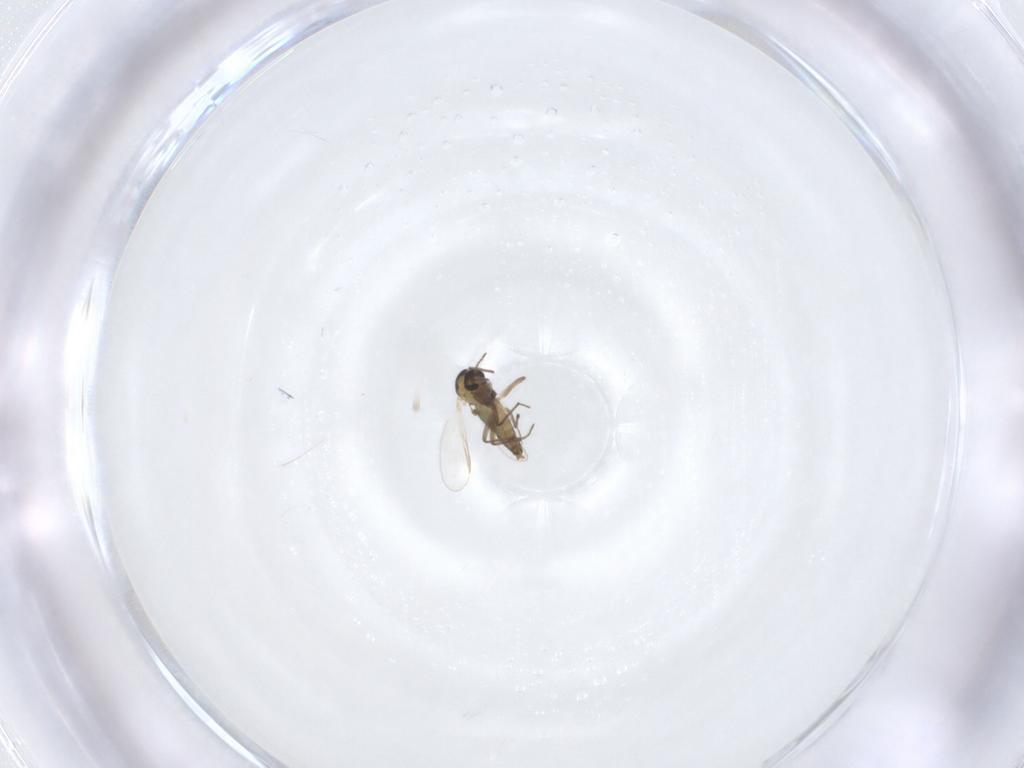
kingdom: Animalia
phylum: Arthropoda
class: Insecta
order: Diptera
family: Chironomidae
